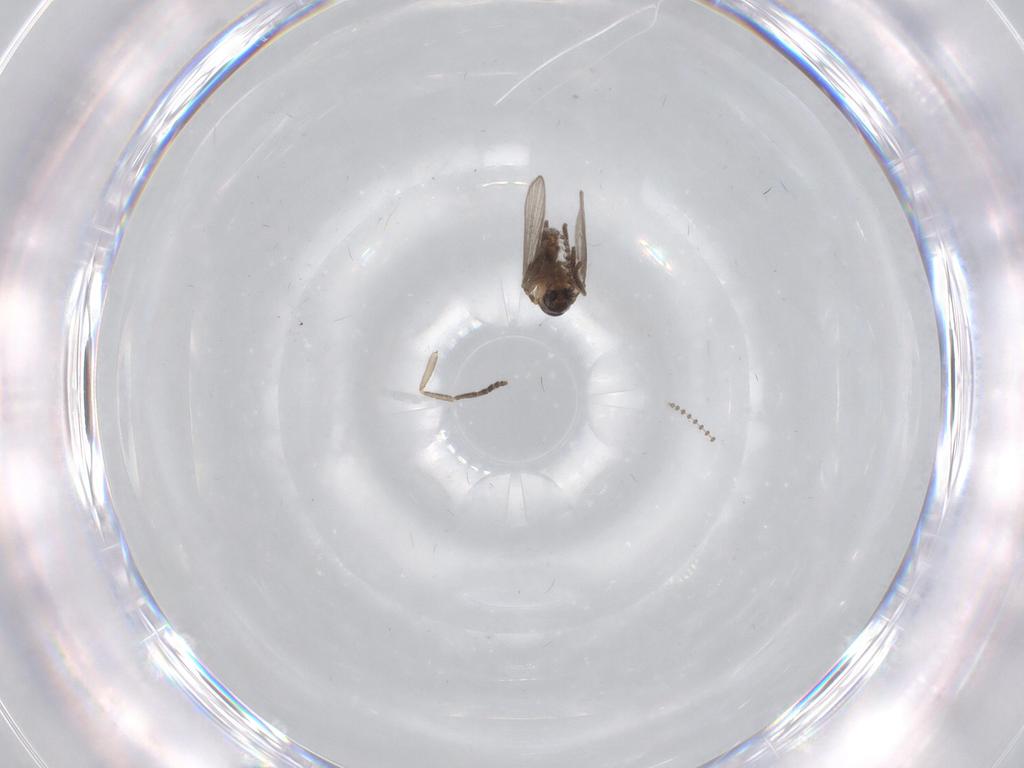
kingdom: Animalia
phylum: Arthropoda
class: Insecta
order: Diptera
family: Psychodidae
